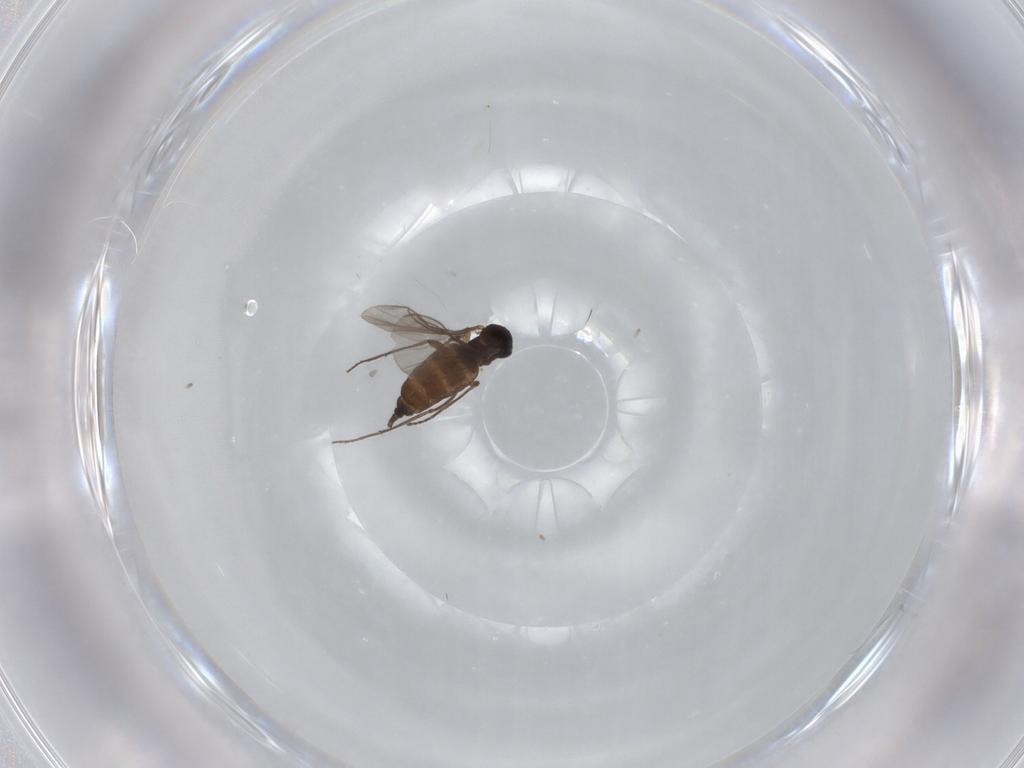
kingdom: Animalia
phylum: Arthropoda
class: Insecta
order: Diptera
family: Sciaridae
